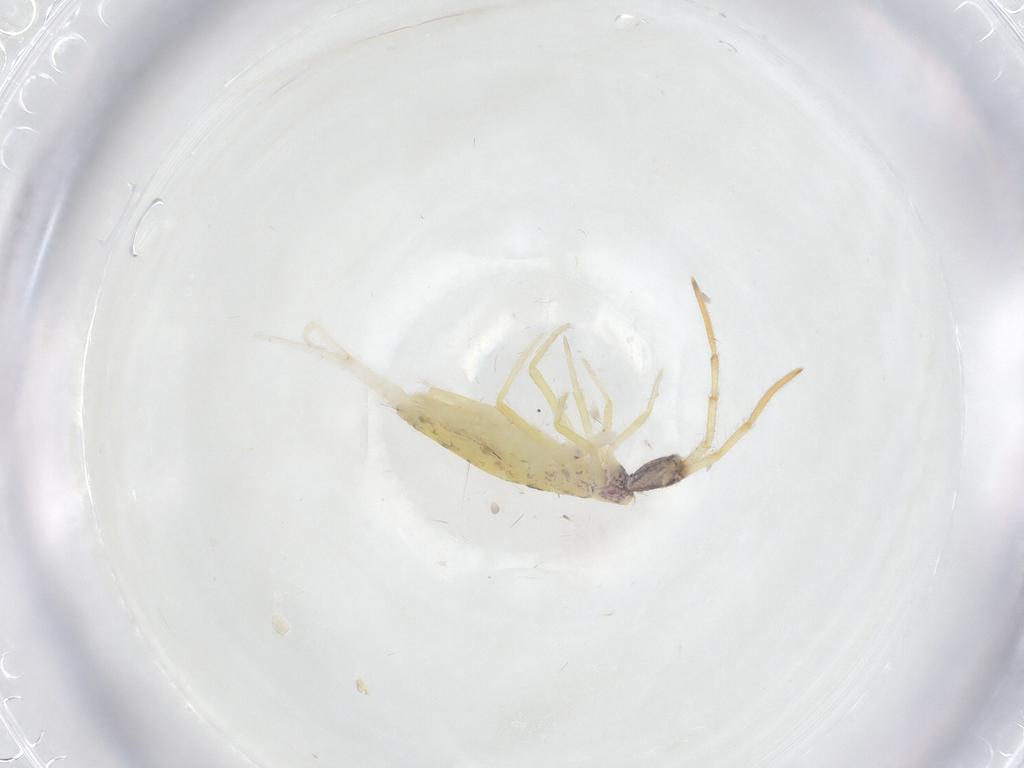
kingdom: Animalia
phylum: Arthropoda
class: Collembola
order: Entomobryomorpha
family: Entomobryidae
